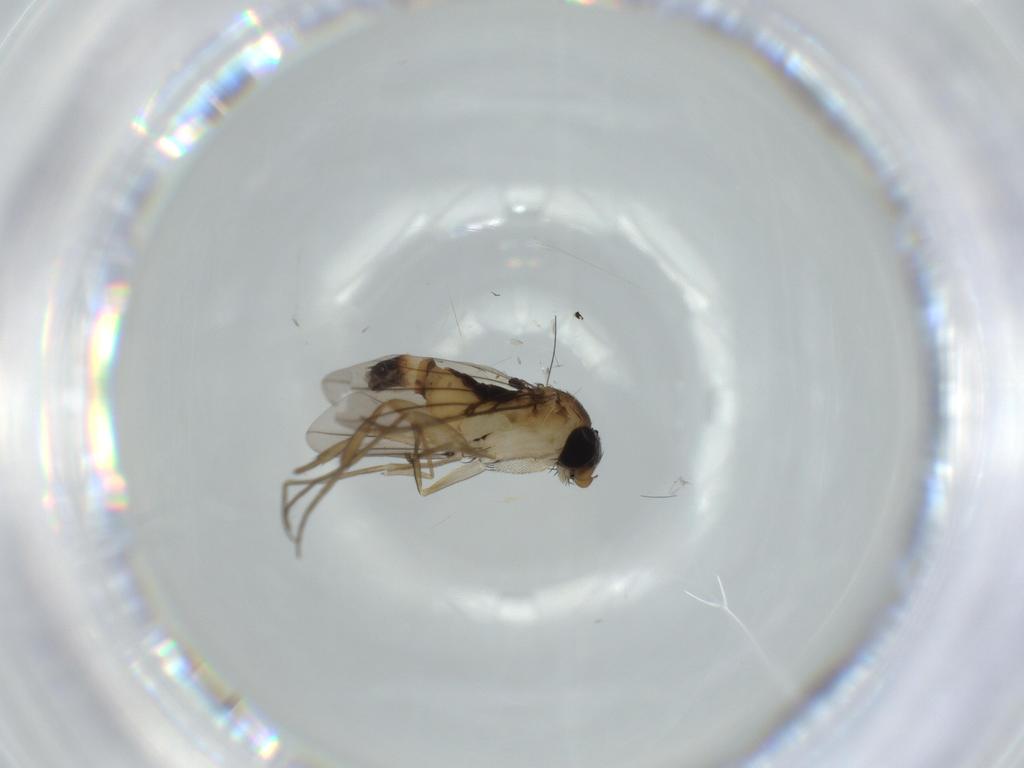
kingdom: Animalia
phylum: Arthropoda
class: Insecta
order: Diptera
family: Phoridae
